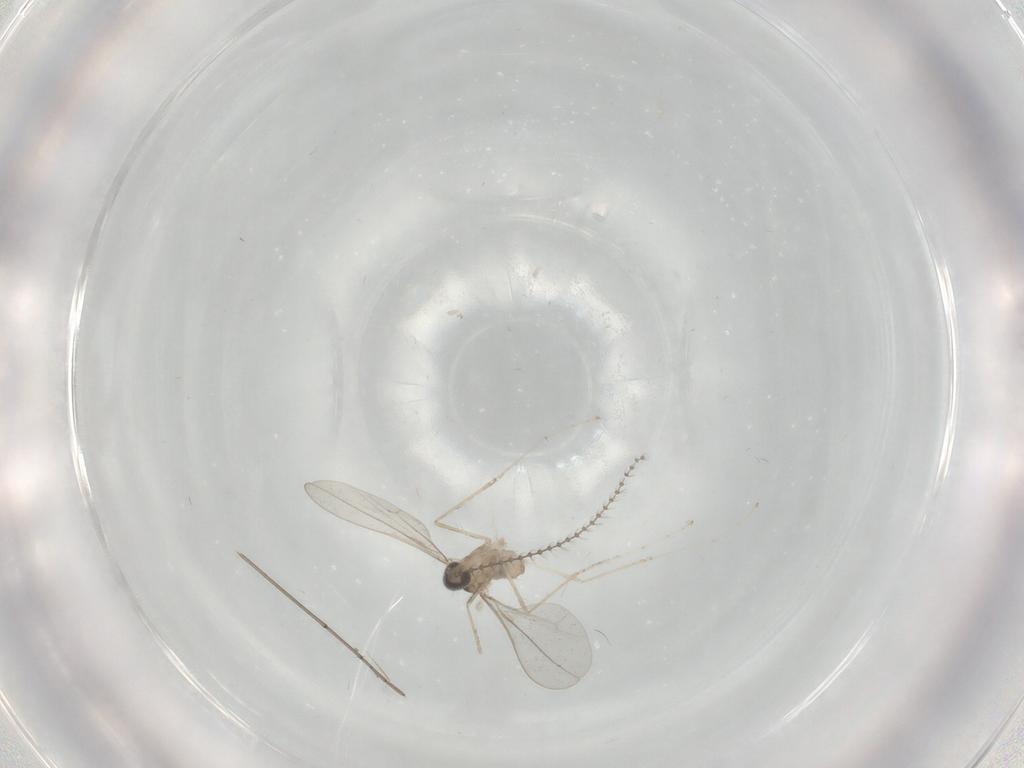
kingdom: Animalia
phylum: Arthropoda
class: Insecta
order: Diptera
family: Cecidomyiidae
